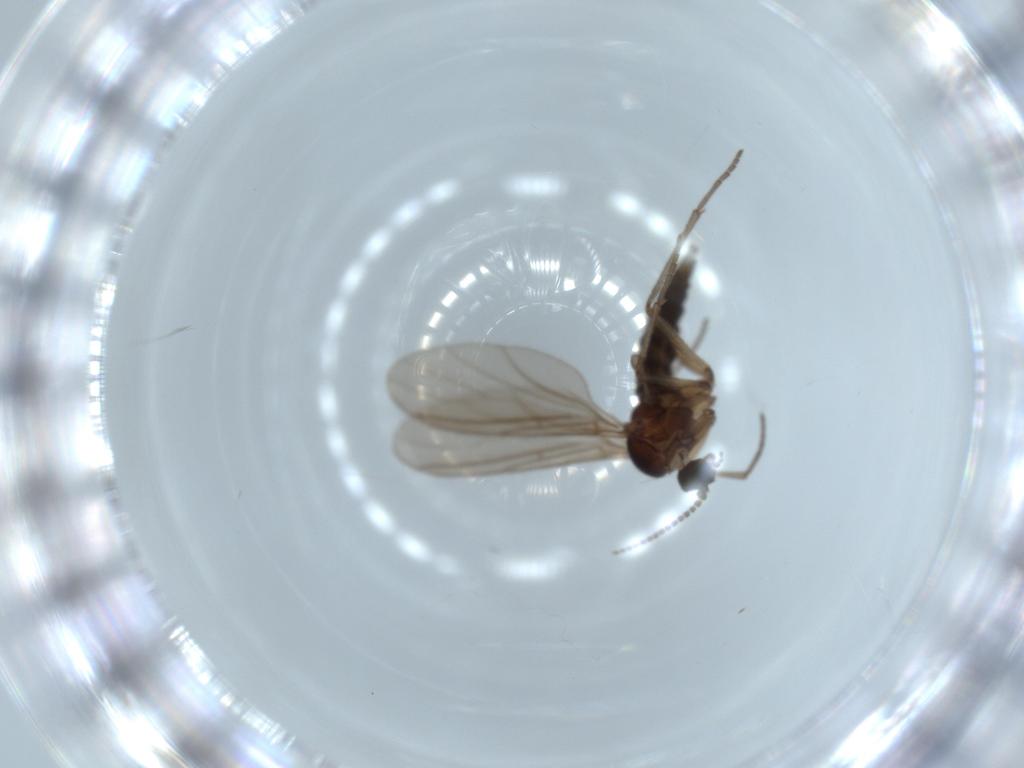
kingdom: Animalia
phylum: Arthropoda
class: Insecta
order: Diptera
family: Sciaridae
